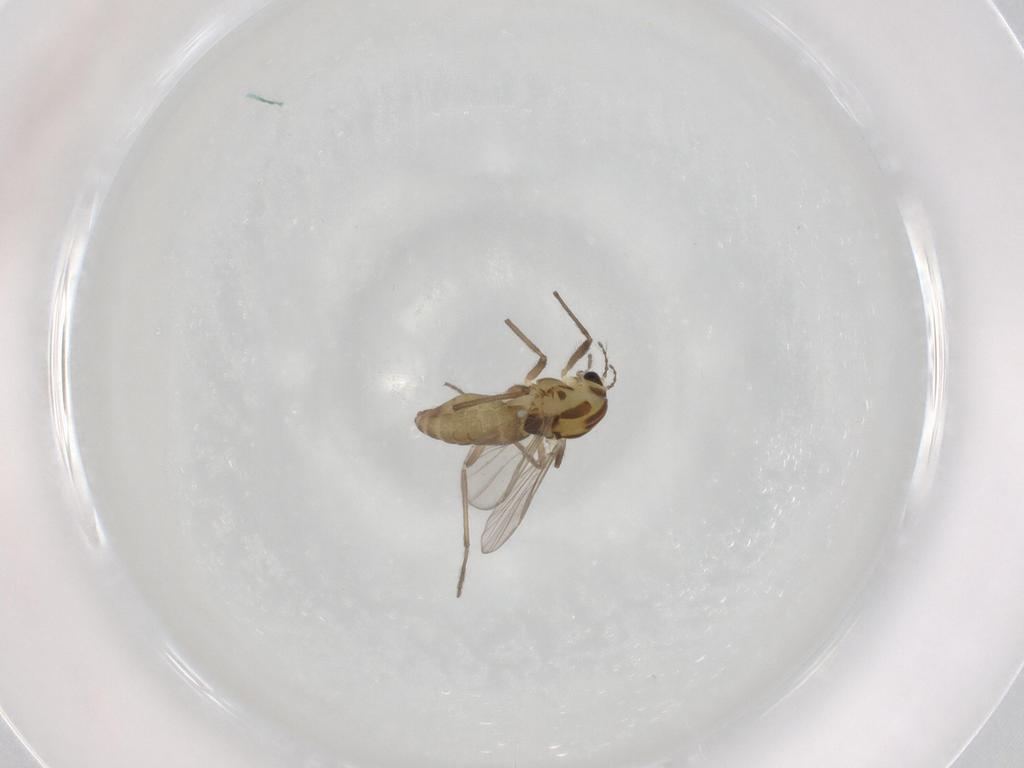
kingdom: Animalia
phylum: Arthropoda
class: Insecta
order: Diptera
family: Chironomidae
